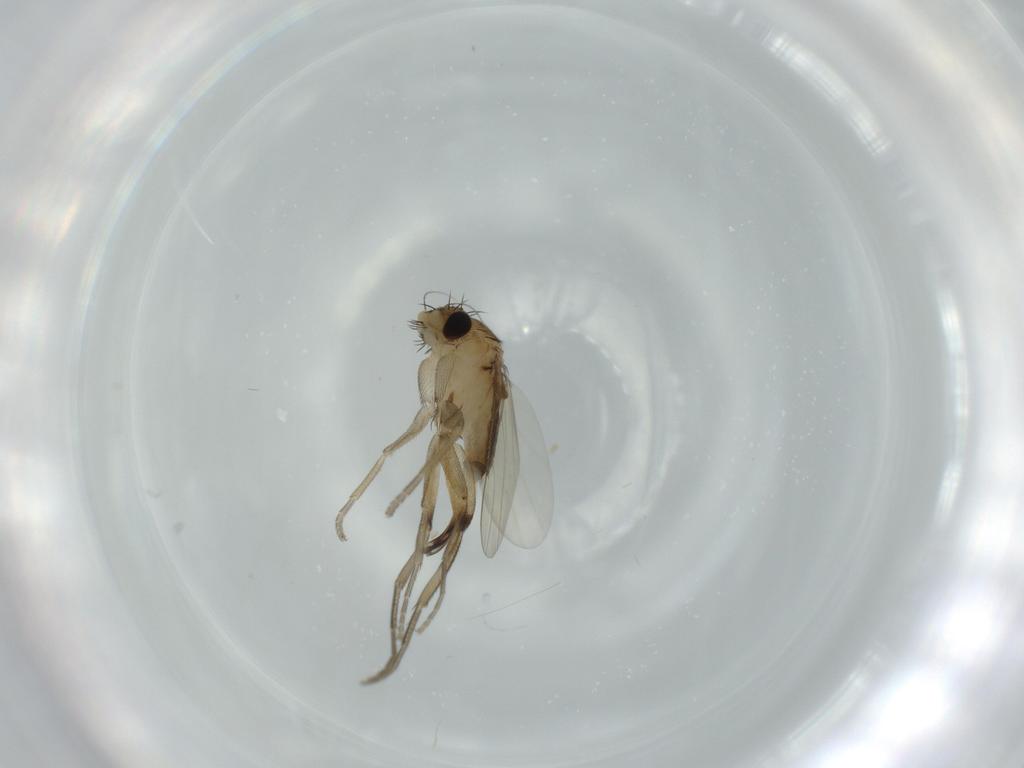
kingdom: Animalia
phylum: Arthropoda
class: Insecta
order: Diptera
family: Phoridae
